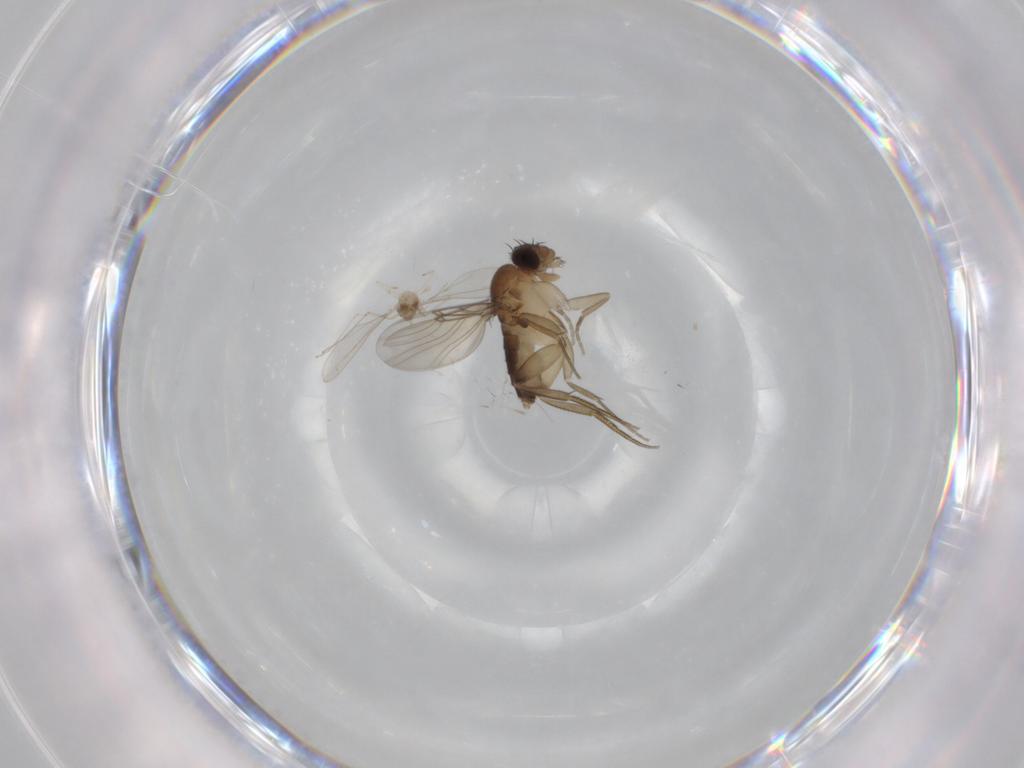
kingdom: Animalia
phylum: Arthropoda
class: Insecta
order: Diptera
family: Phoridae
